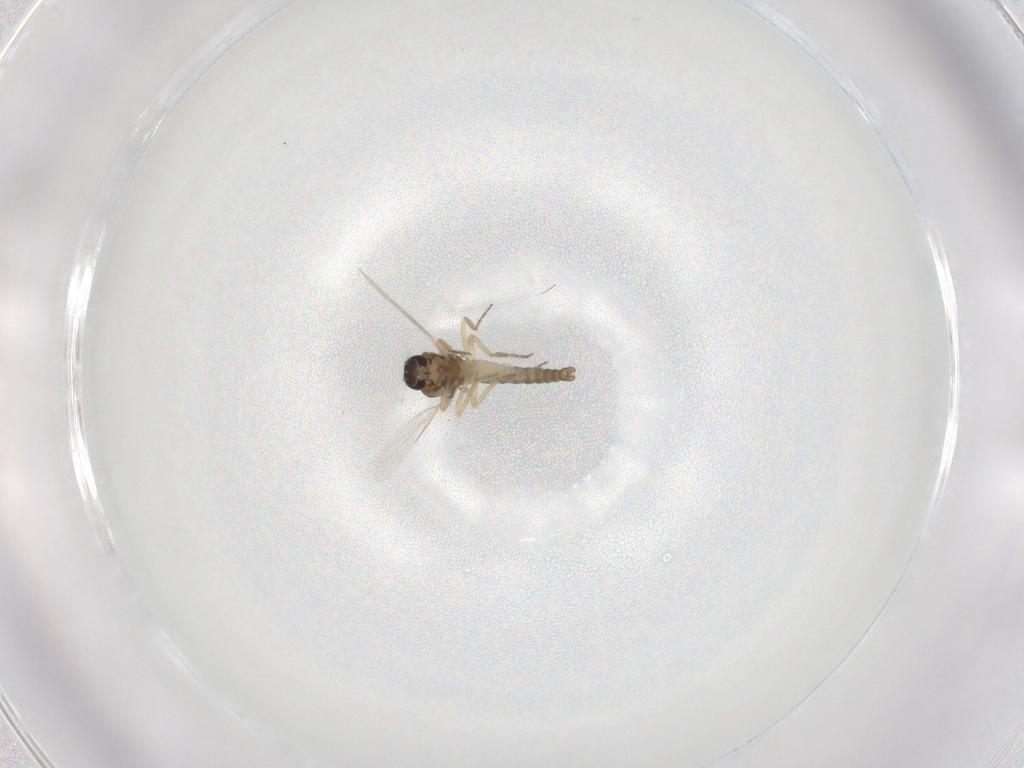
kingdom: Animalia
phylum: Arthropoda
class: Insecta
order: Diptera
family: Ceratopogonidae
